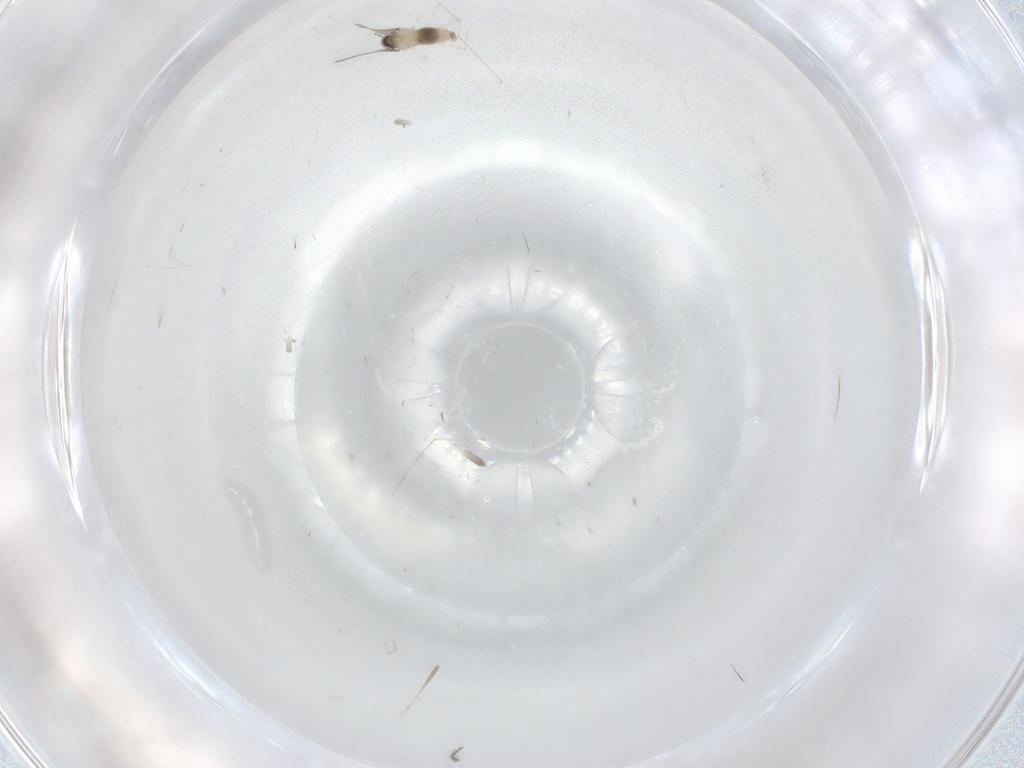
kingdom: Animalia
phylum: Arthropoda
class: Insecta
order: Diptera
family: Cecidomyiidae
